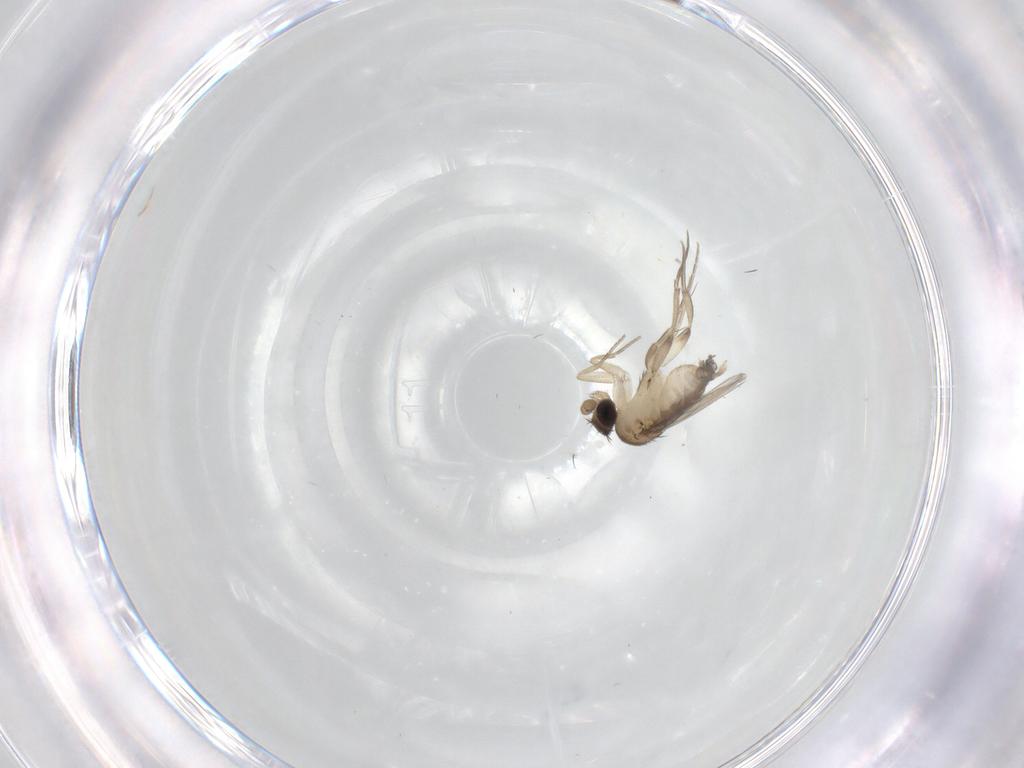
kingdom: Animalia
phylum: Arthropoda
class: Insecta
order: Diptera
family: Phoridae
